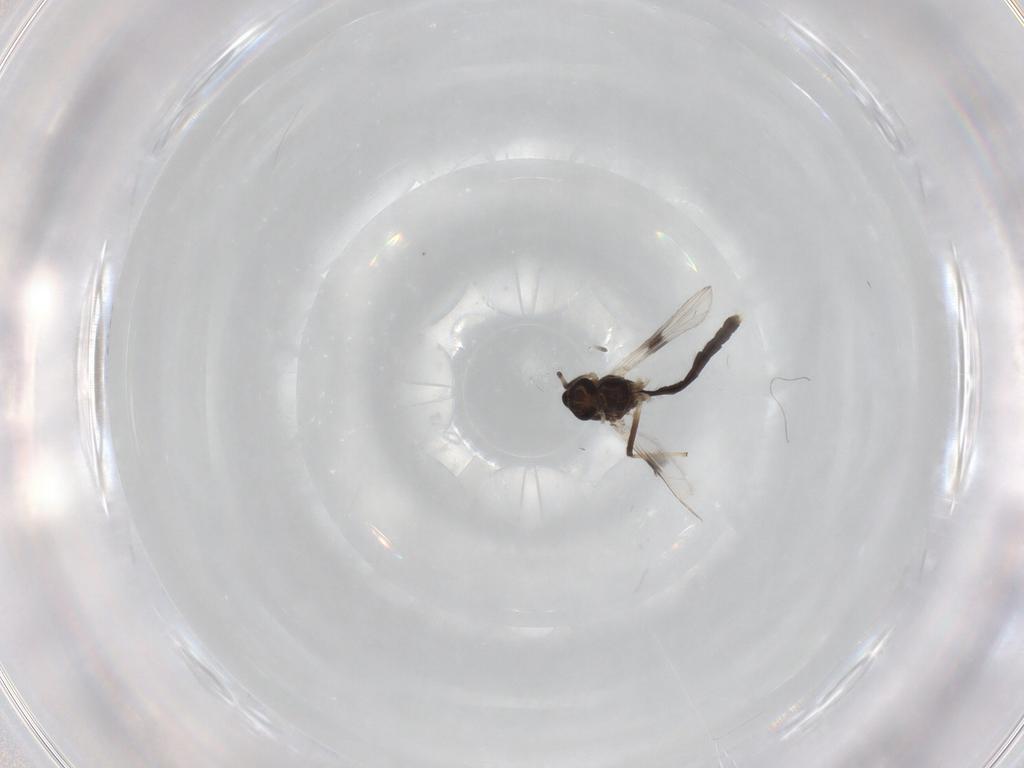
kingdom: Animalia
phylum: Arthropoda
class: Insecta
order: Diptera
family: Chironomidae
